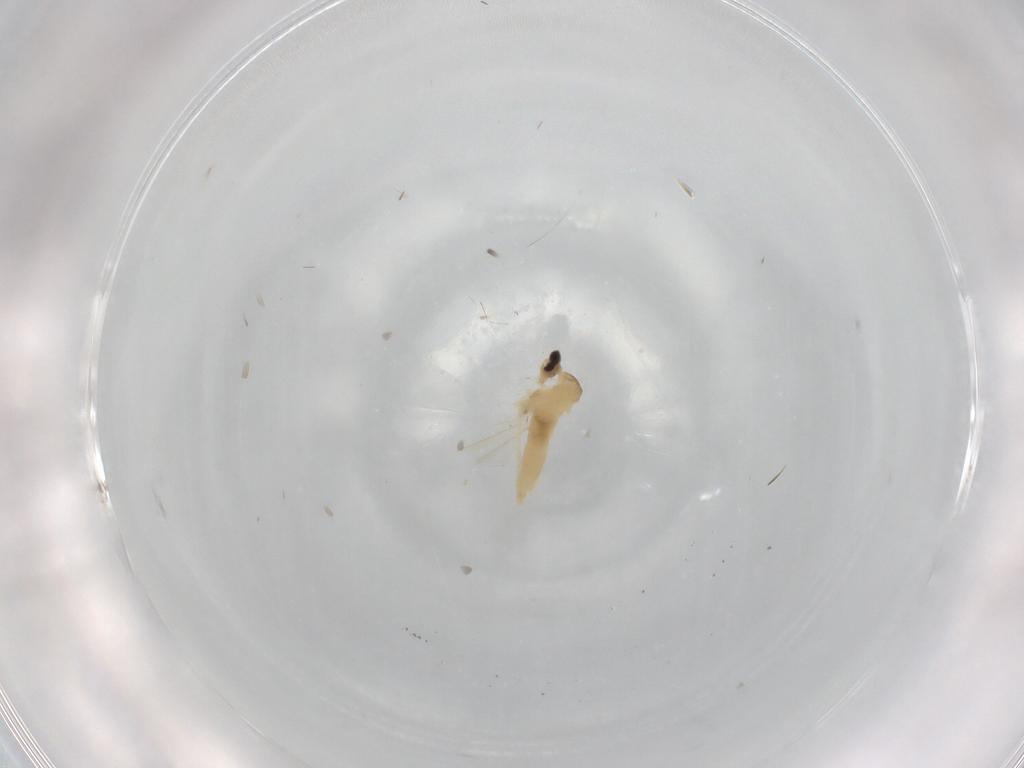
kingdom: Animalia
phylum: Arthropoda
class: Insecta
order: Diptera
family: Cecidomyiidae
